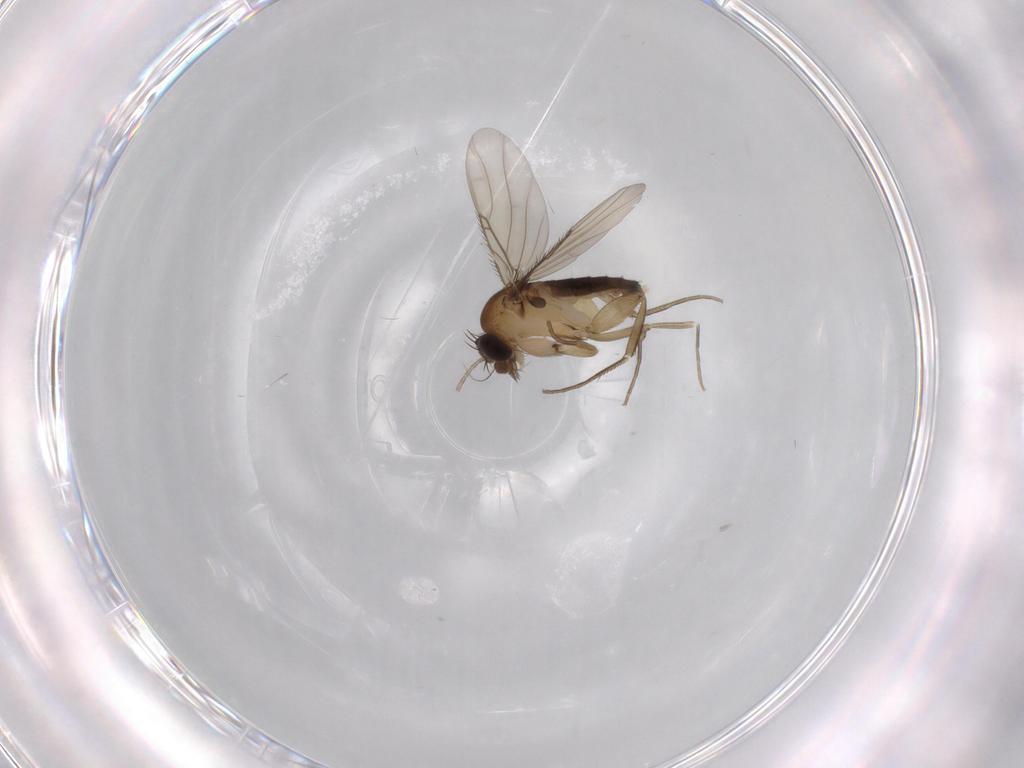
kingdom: Animalia
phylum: Arthropoda
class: Insecta
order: Diptera
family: Phoridae
